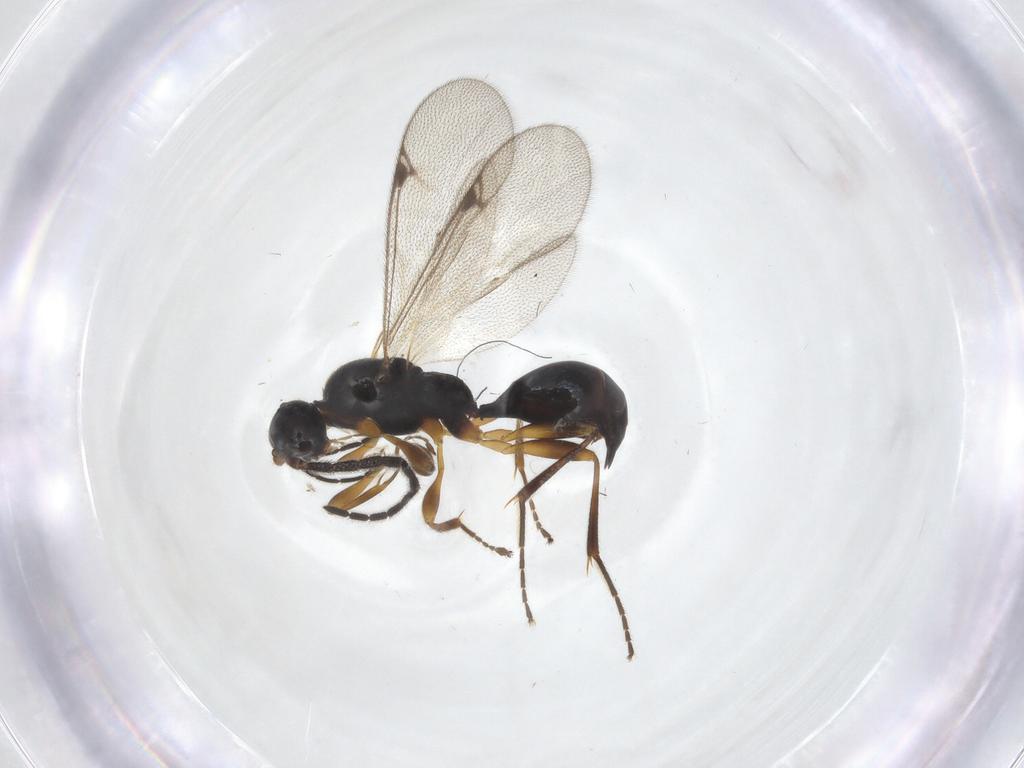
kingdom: Animalia
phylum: Arthropoda
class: Insecta
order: Hymenoptera
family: Proctotrupidae
